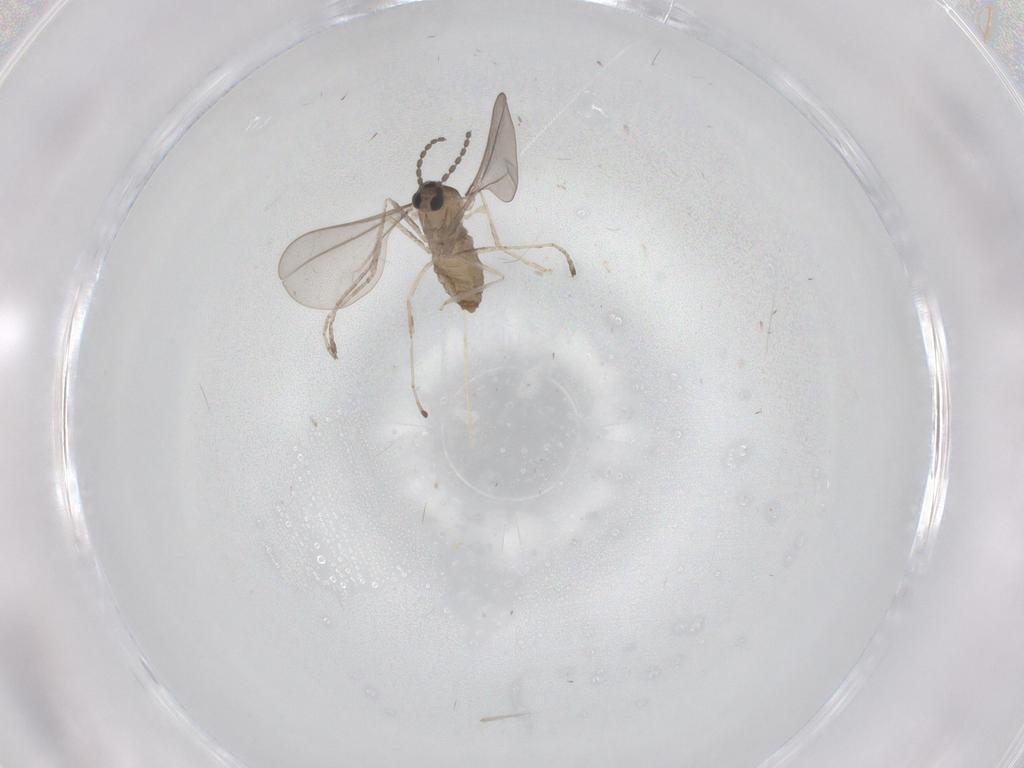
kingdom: Animalia
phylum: Arthropoda
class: Insecta
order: Diptera
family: Cecidomyiidae
